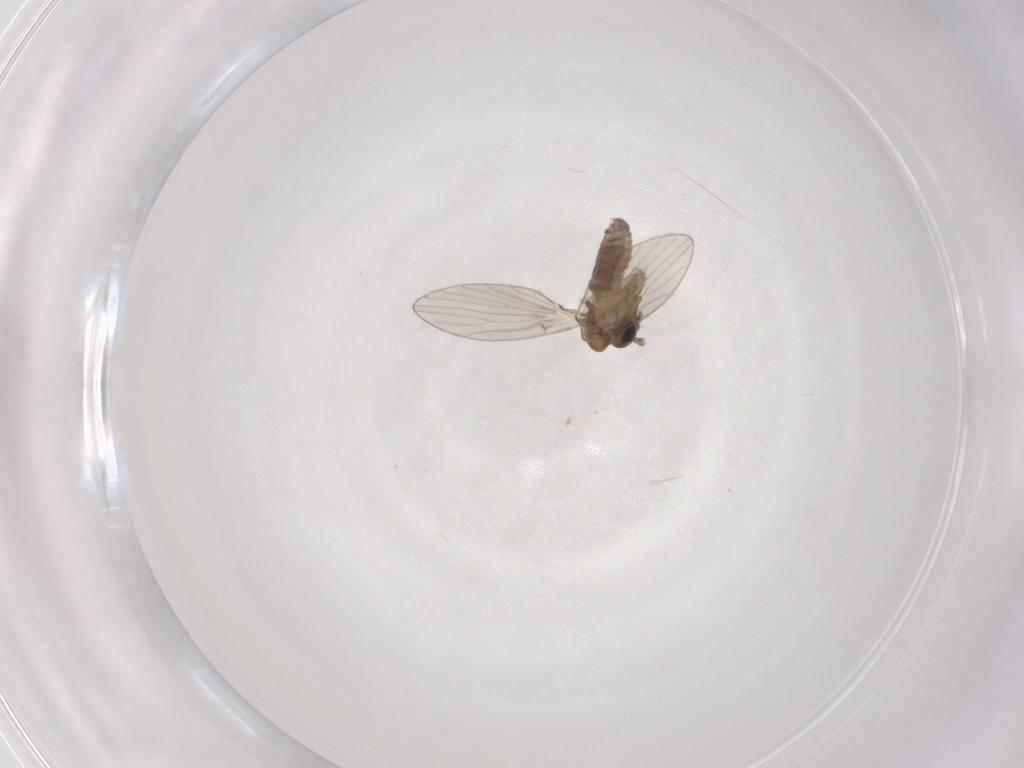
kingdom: Animalia
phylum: Arthropoda
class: Insecta
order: Diptera
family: Psychodidae
